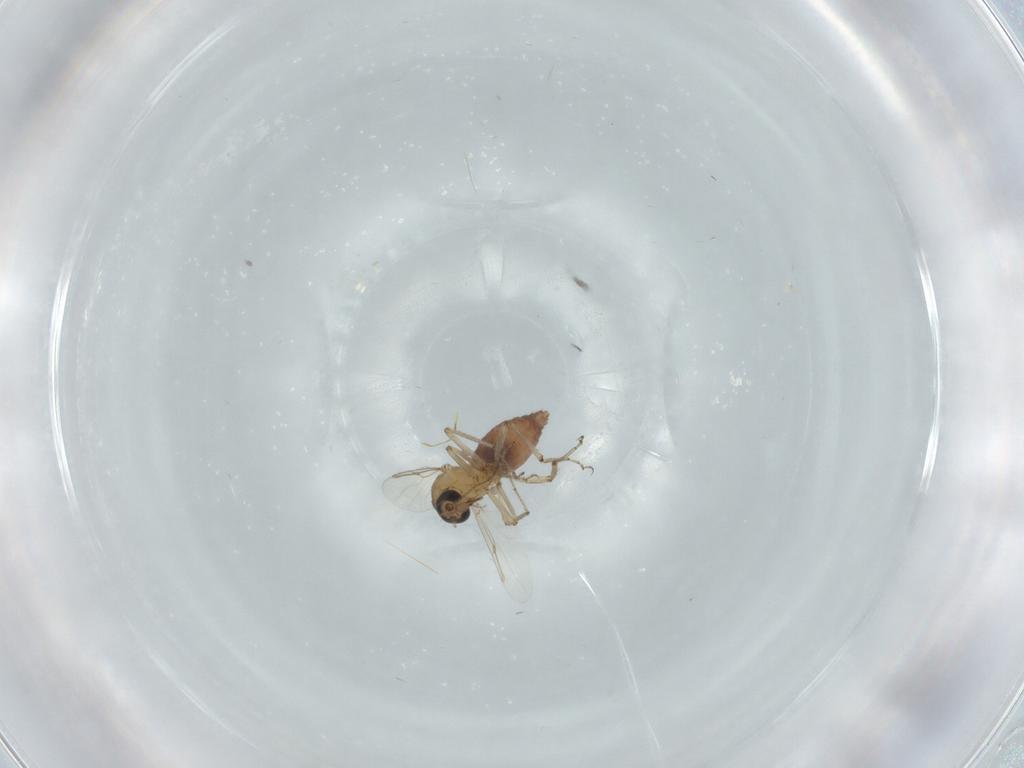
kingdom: Animalia
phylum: Arthropoda
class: Insecta
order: Diptera
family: Ceratopogonidae
